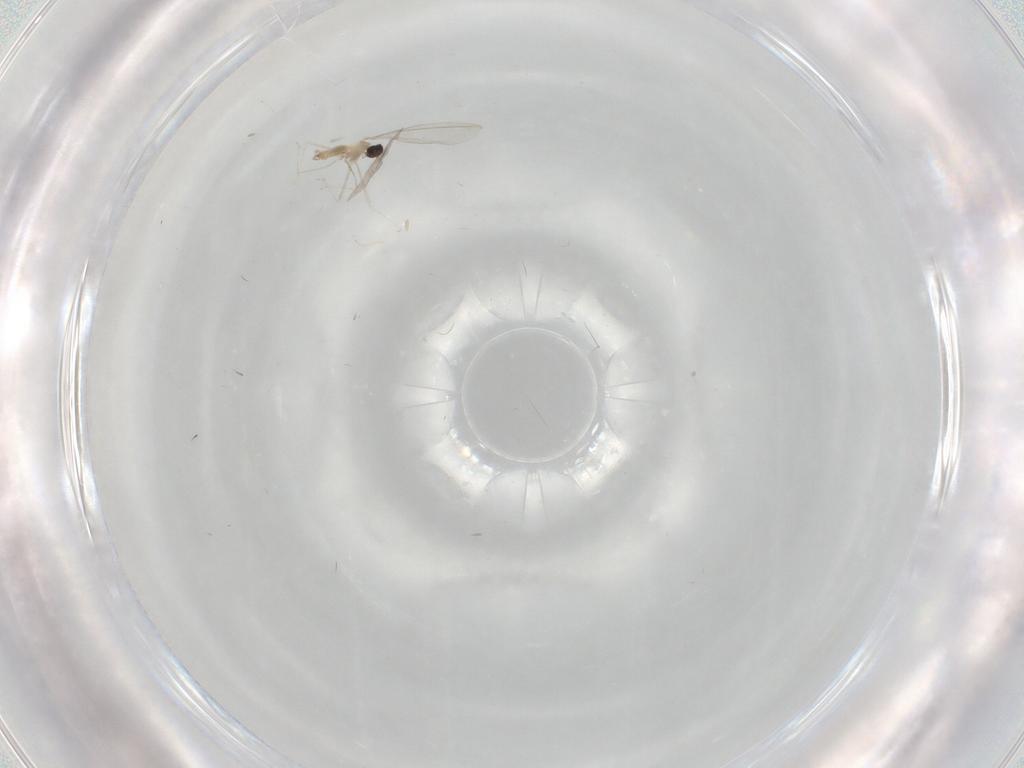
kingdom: Animalia
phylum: Arthropoda
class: Insecta
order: Diptera
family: Cecidomyiidae
